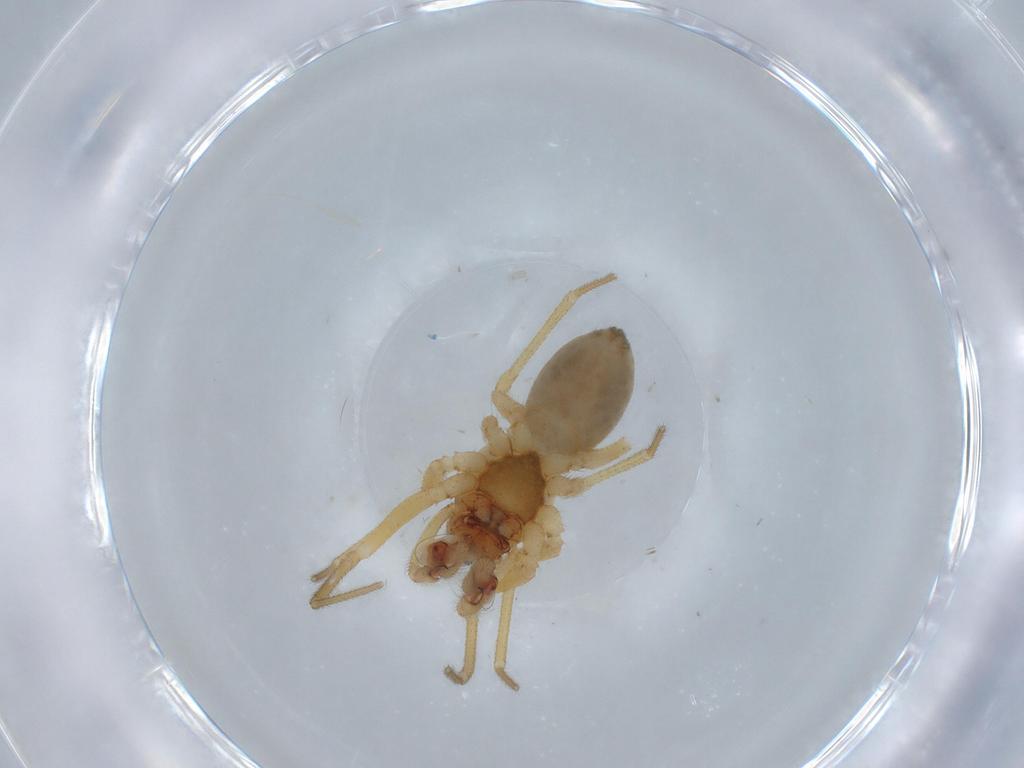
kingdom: Animalia
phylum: Arthropoda
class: Arachnida
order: Araneae
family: Linyphiidae
